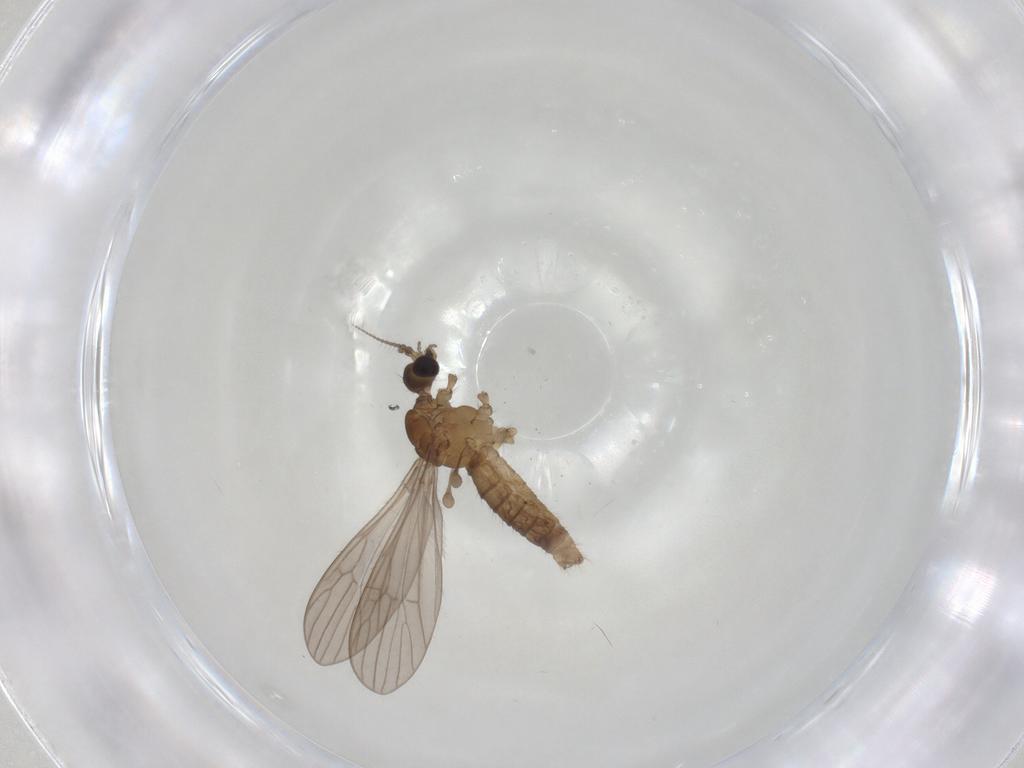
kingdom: Animalia
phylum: Arthropoda
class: Insecta
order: Diptera
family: Limoniidae
